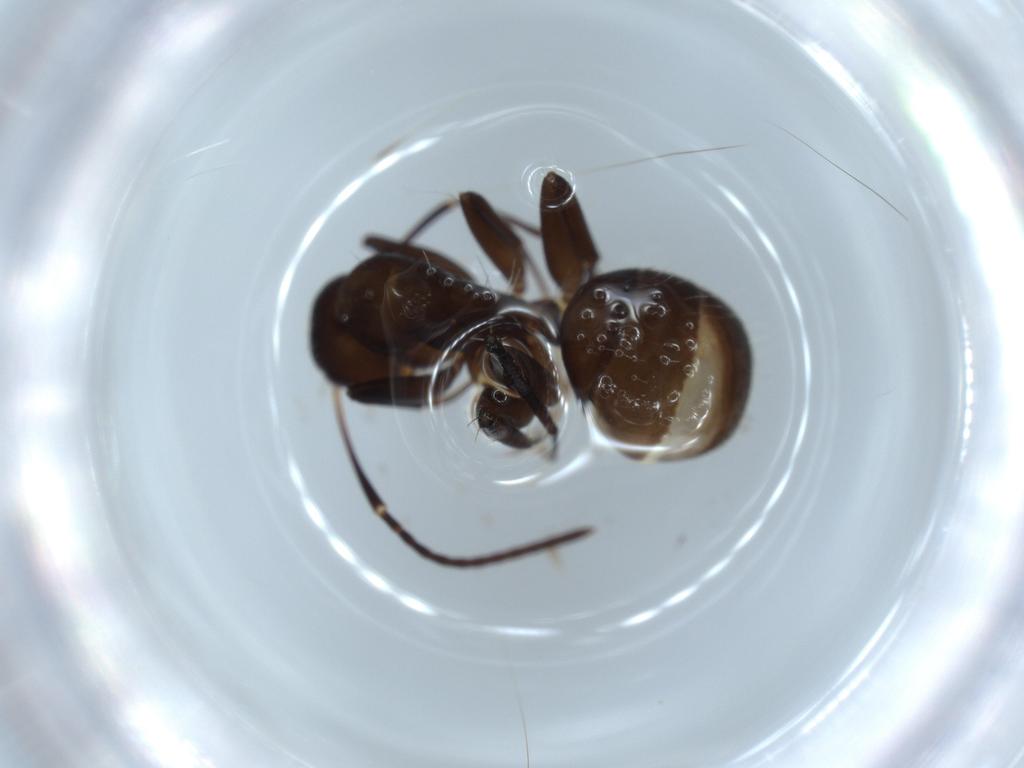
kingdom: Animalia
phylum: Arthropoda
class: Insecta
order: Hymenoptera
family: Formicidae
